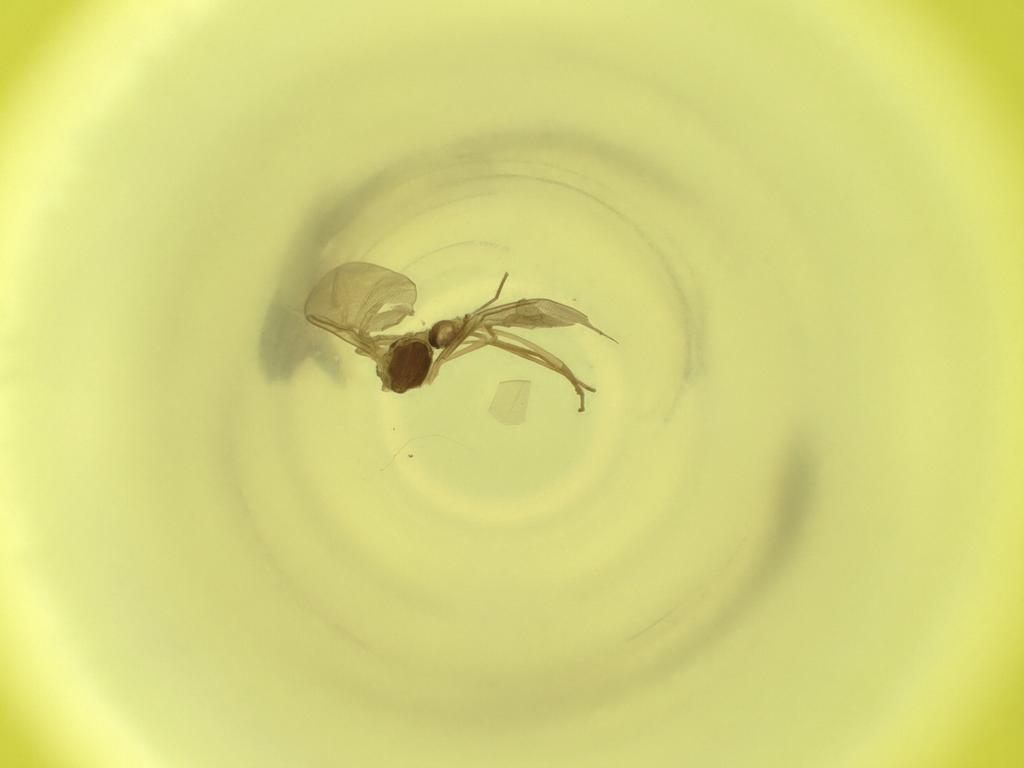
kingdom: Animalia
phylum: Arthropoda
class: Insecta
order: Diptera
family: Cecidomyiidae
